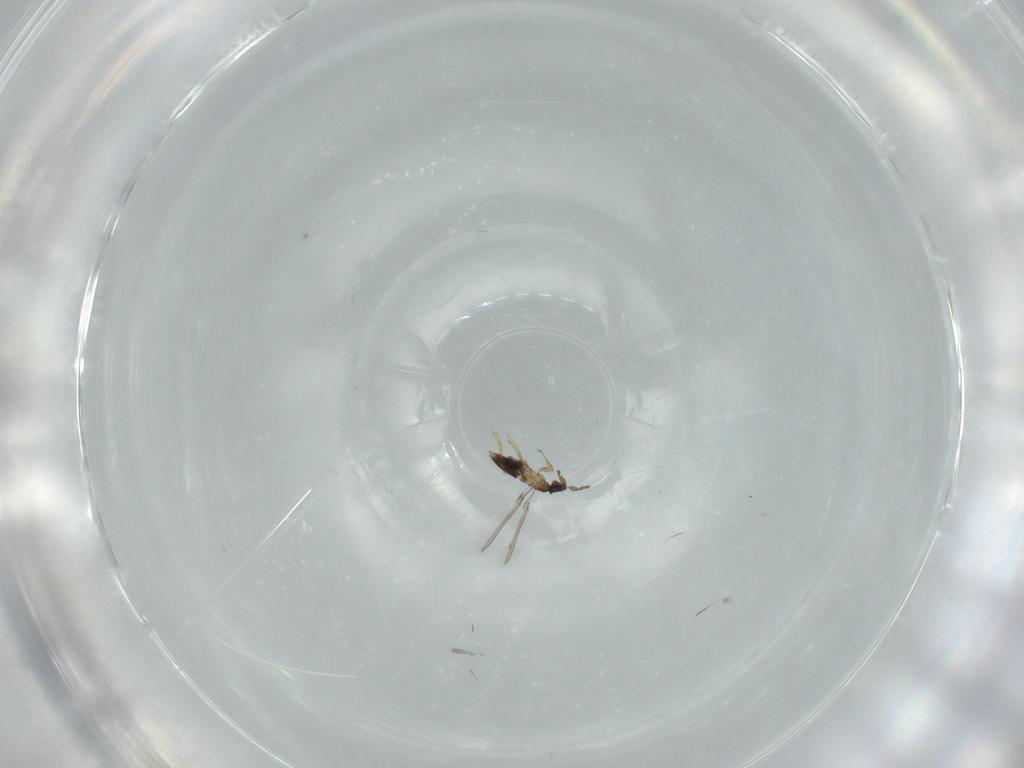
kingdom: Animalia
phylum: Arthropoda
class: Insecta
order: Hymenoptera
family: Mymaridae
